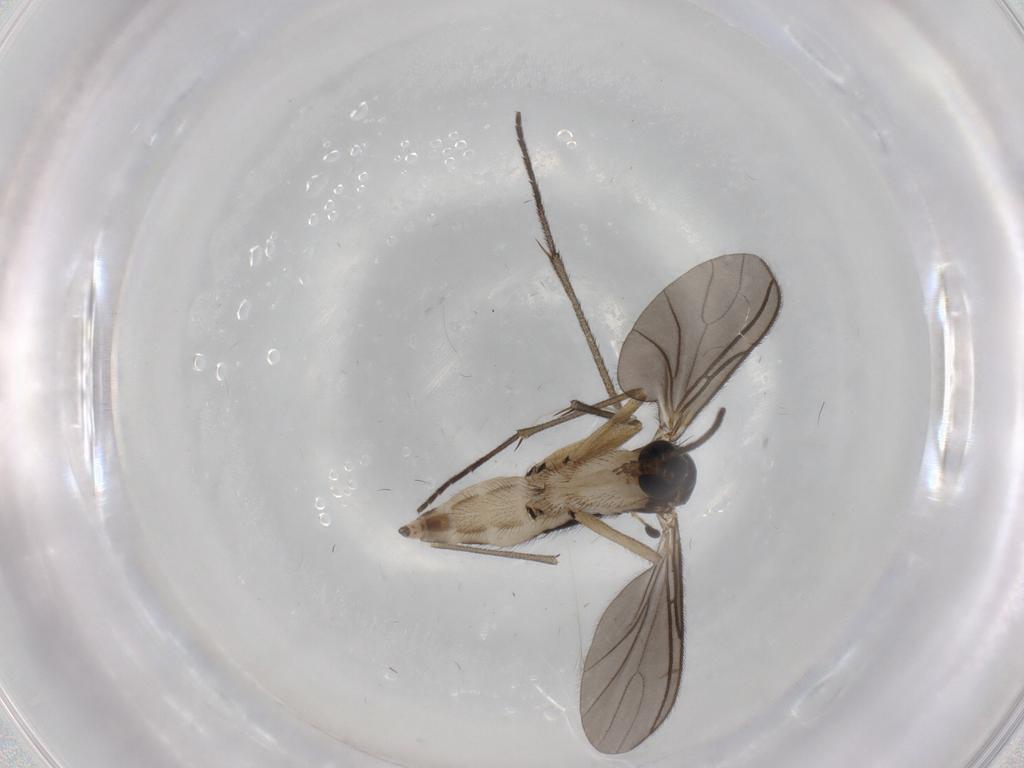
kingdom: Animalia
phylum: Arthropoda
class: Insecta
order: Diptera
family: Sciaridae
